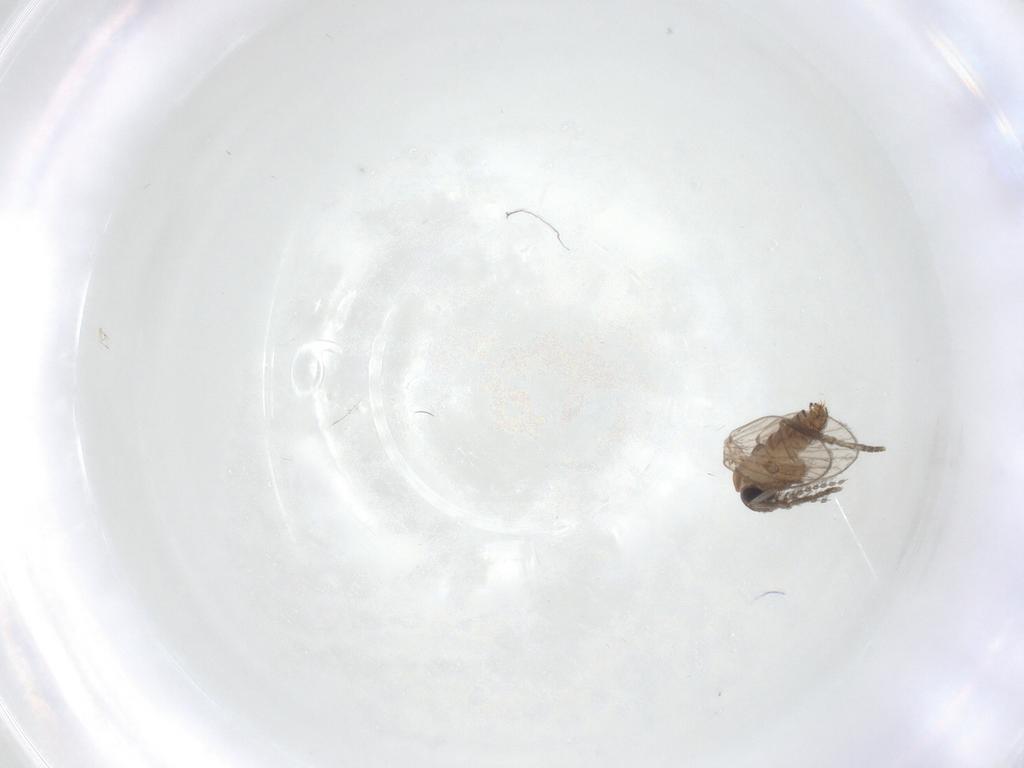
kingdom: Animalia
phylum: Arthropoda
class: Insecta
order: Diptera
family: Psychodidae
